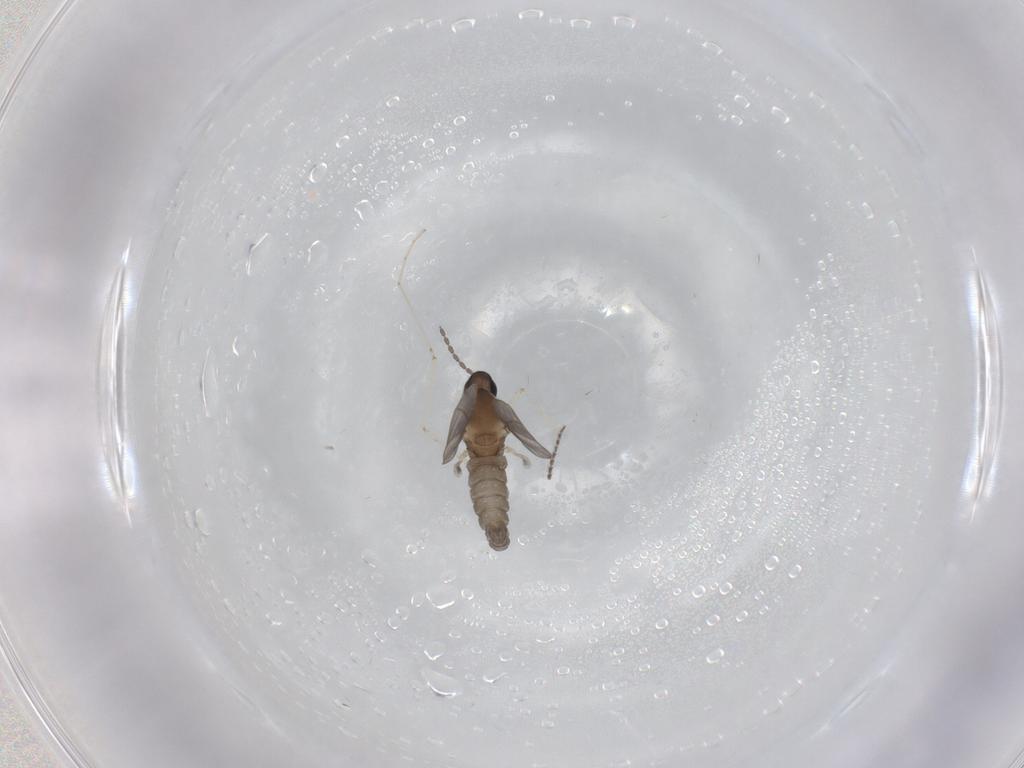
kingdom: Animalia
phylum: Arthropoda
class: Insecta
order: Diptera
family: Cecidomyiidae
